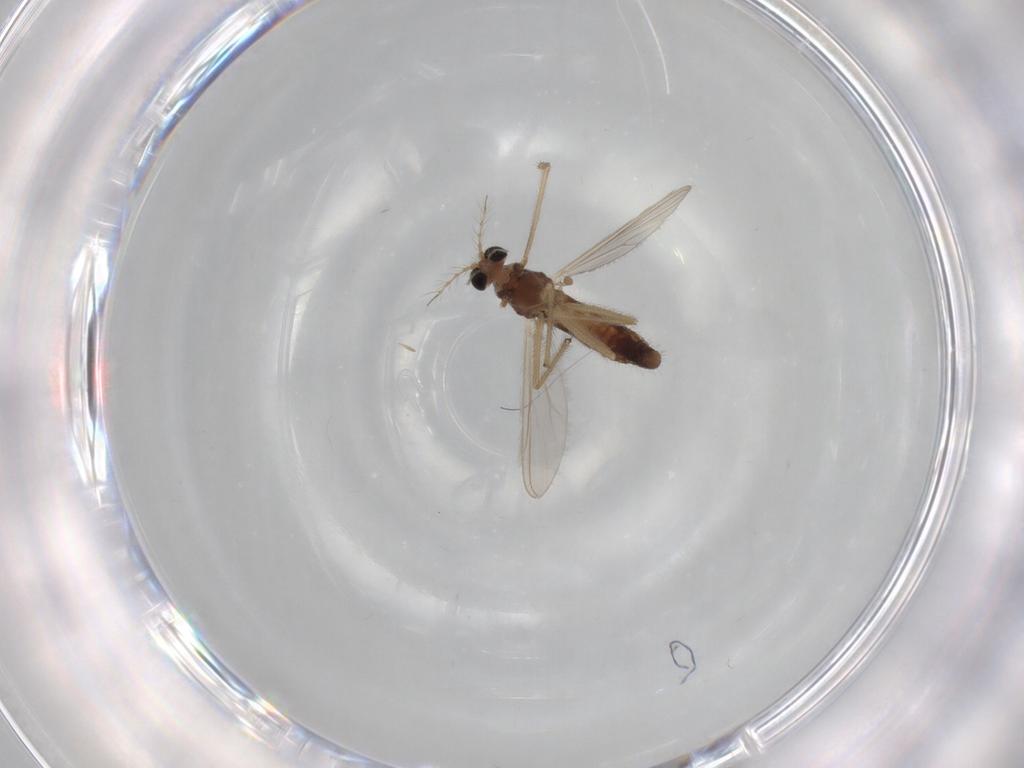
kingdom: Animalia
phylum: Arthropoda
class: Insecta
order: Diptera
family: Chironomidae
